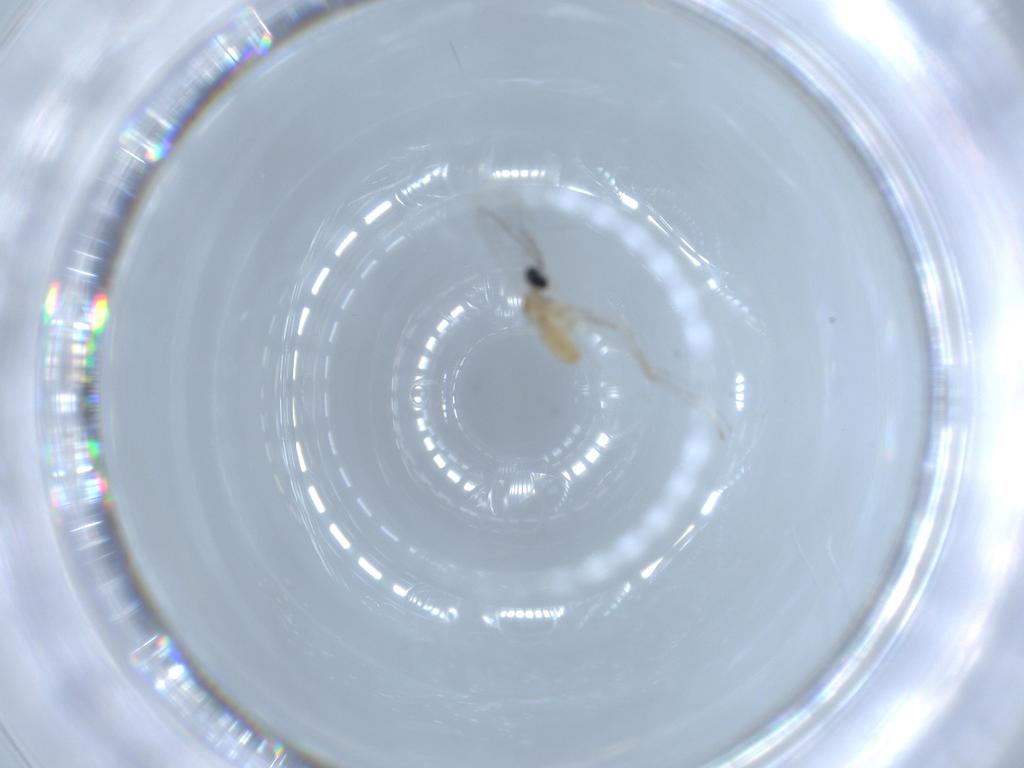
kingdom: Animalia
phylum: Arthropoda
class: Insecta
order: Diptera
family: Cecidomyiidae
